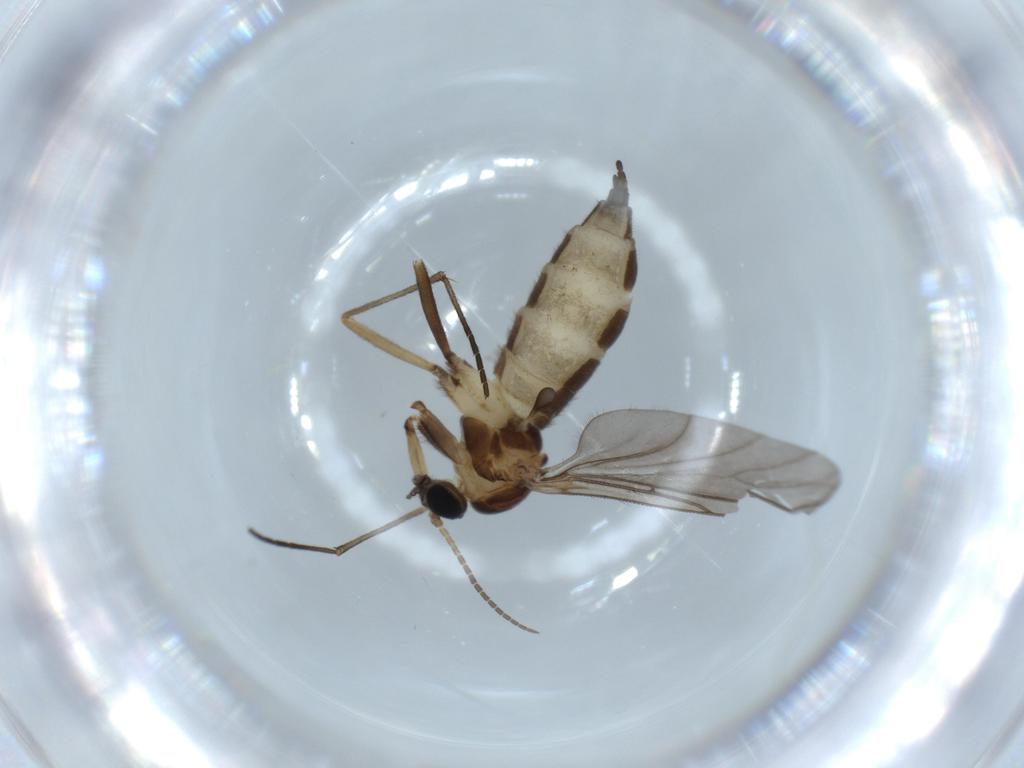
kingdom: Animalia
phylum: Arthropoda
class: Insecta
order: Diptera
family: Sciaridae
